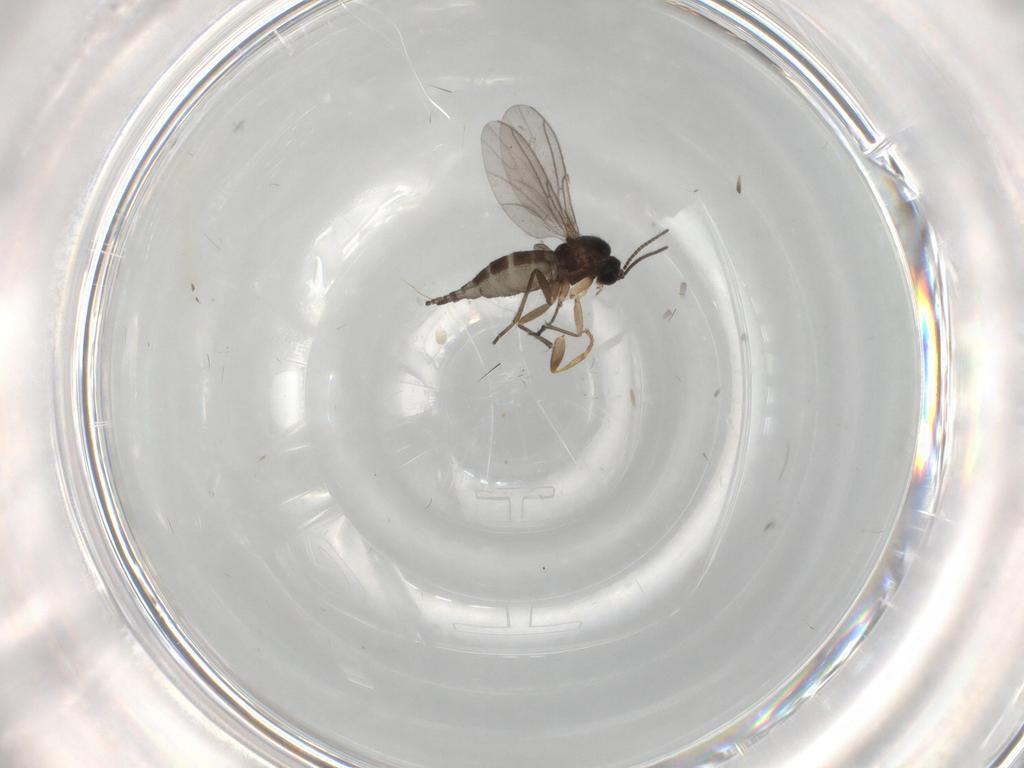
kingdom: Animalia
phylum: Arthropoda
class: Insecta
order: Diptera
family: Sciaridae
